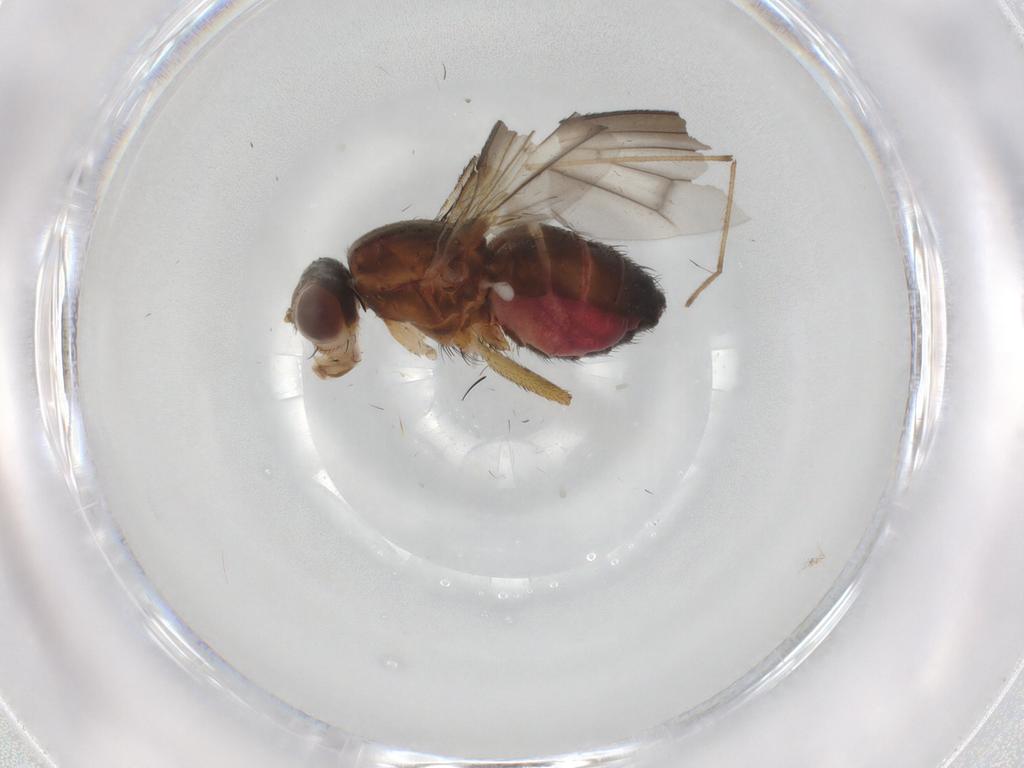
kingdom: Animalia
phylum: Arthropoda
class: Insecta
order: Diptera
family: Heleomyzidae
